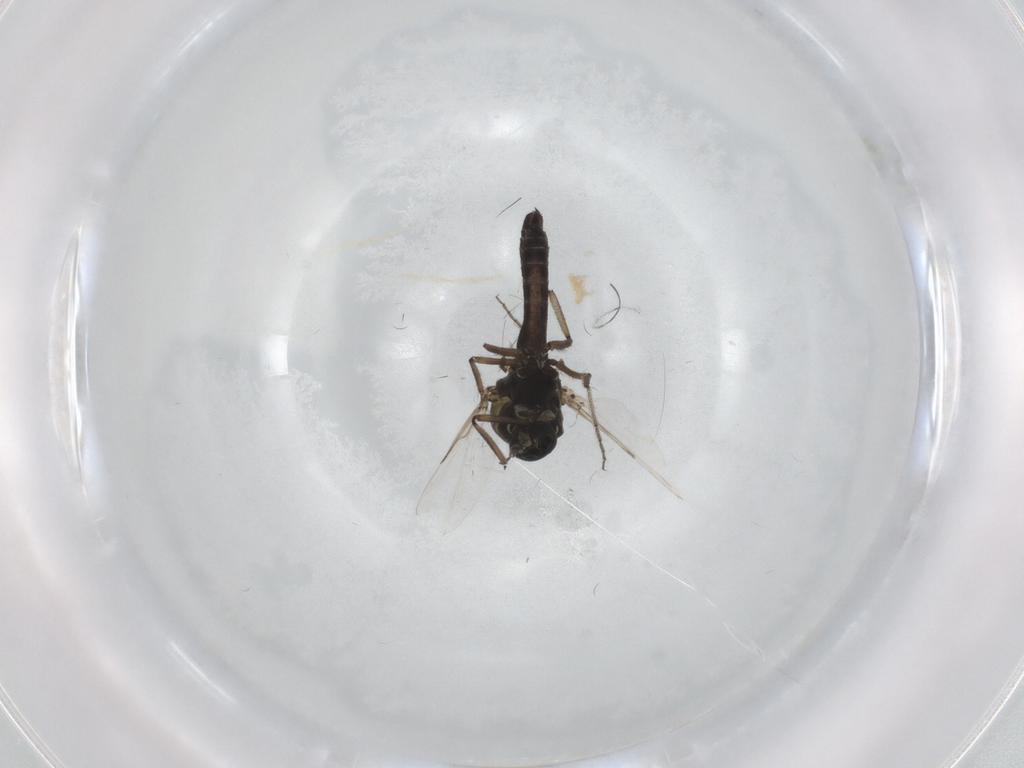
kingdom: Animalia
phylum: Arthropoda
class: Insecta
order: Diptera
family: Ceratopogonidae
